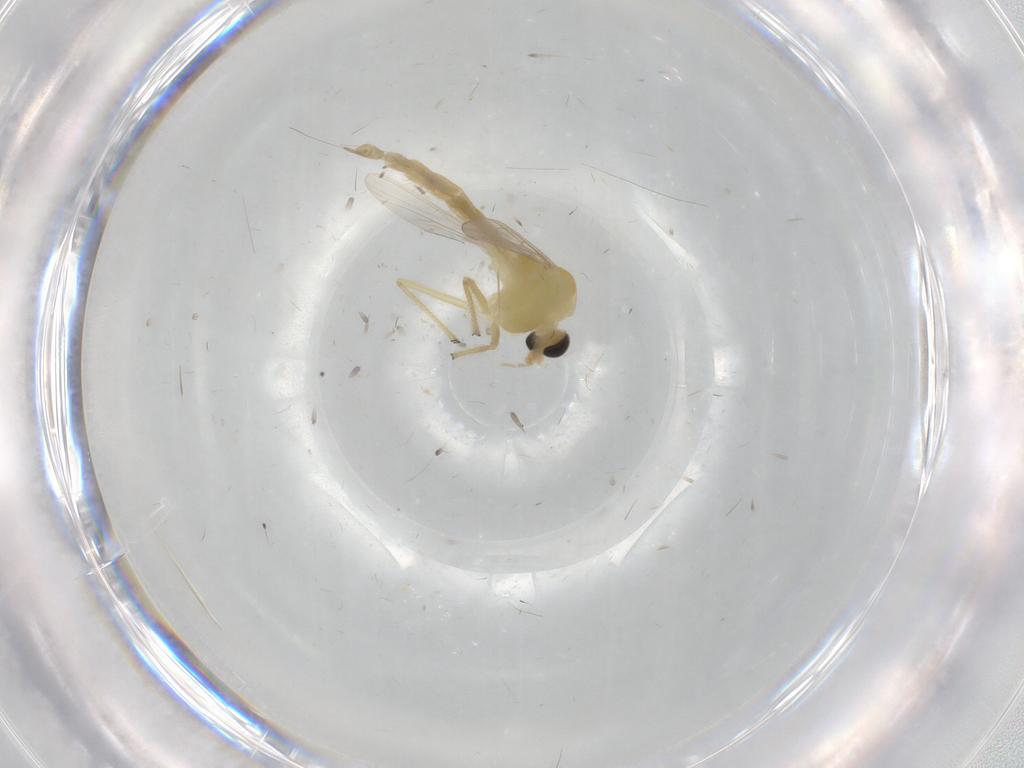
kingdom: Animalia
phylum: Arthropoda
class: Insecta
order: Diptera
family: Chironomidae
